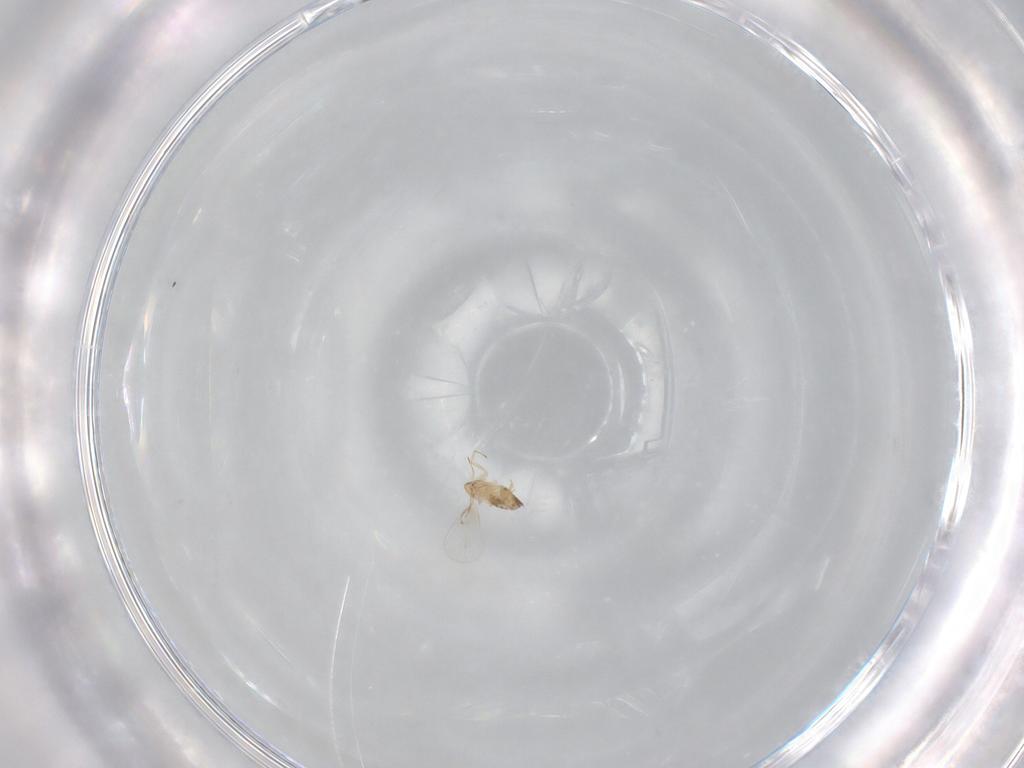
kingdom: Animalia
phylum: Arthropoda
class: Insecta
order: Hymenoptera
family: Trichogrammatidae
